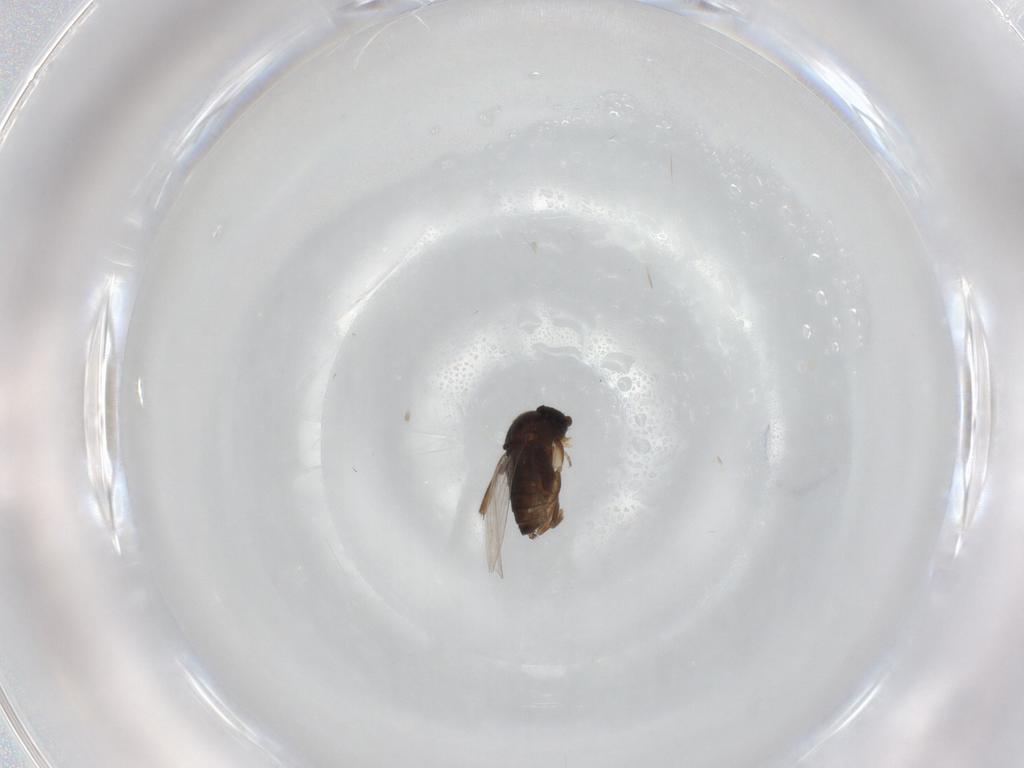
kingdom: Animalia
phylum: Arthropoda
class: Insecta
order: Diptera
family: Phoridae
